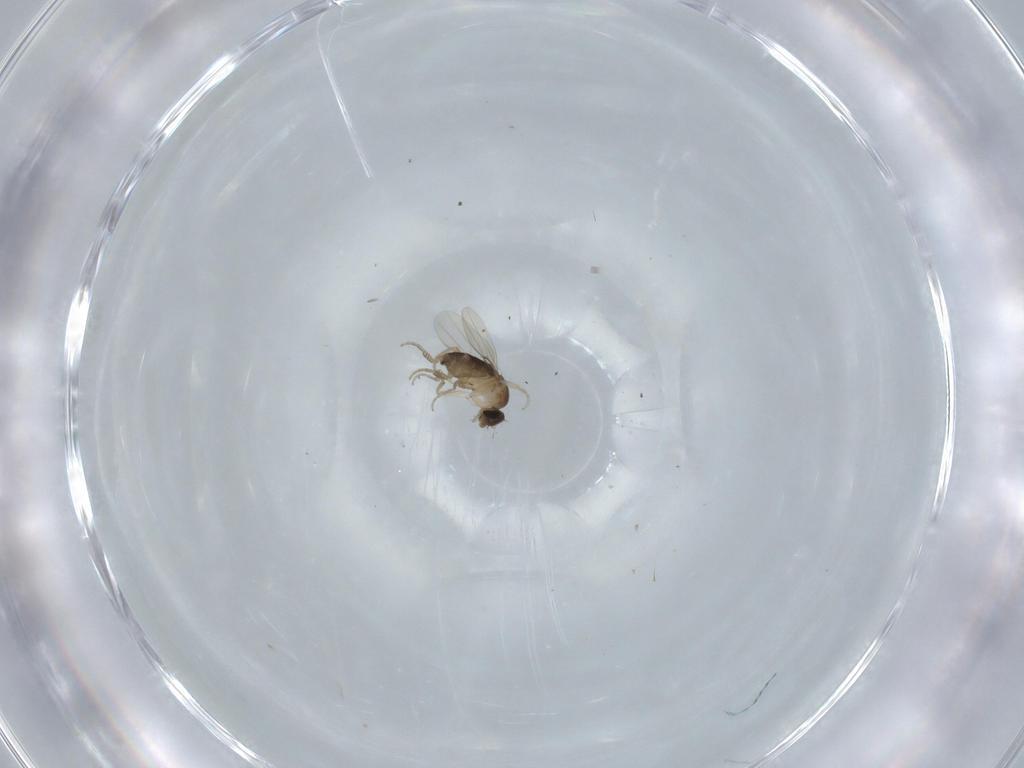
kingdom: Animalia
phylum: Arthropoda
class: Insecta
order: Diptera
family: Phoridae
